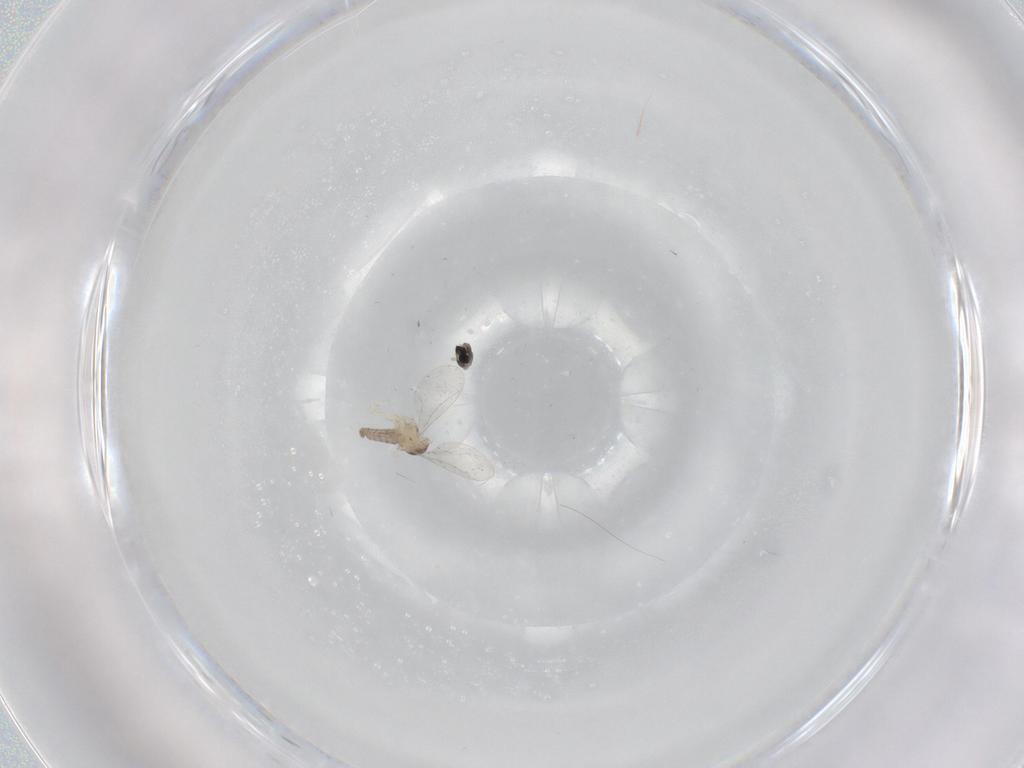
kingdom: Animalia
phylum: Arthropoda
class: Insecta
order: Diptera
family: Cecidomyiidae
